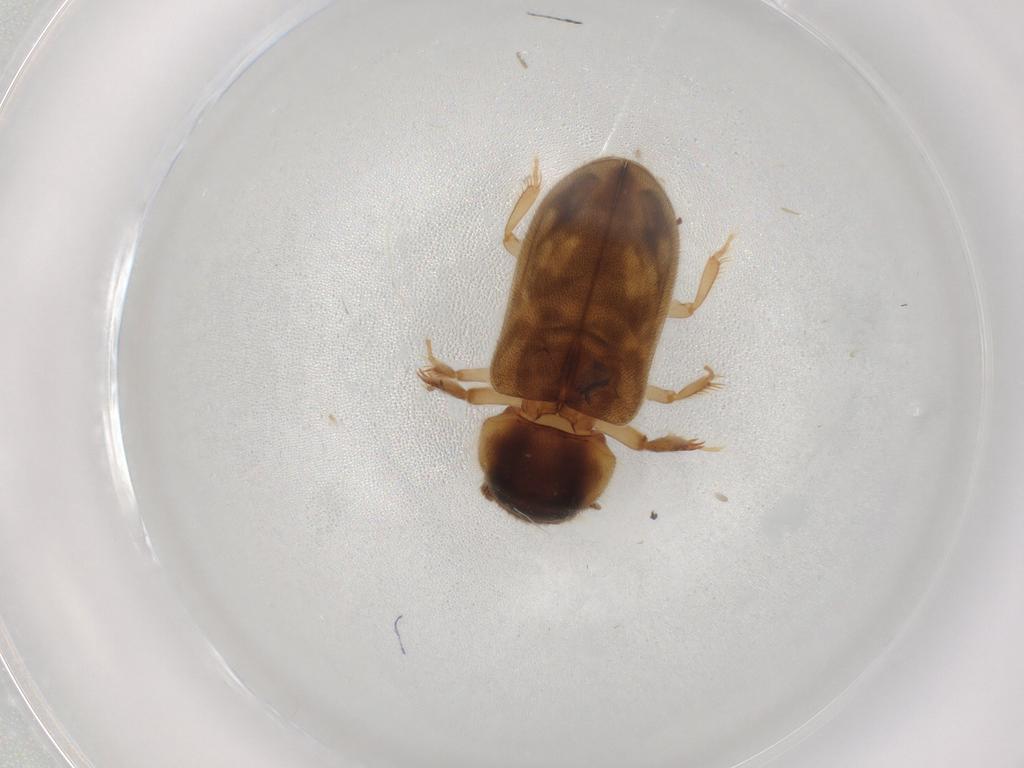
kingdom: Animalia
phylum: Arthropoda
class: Insecta
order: Coleoptera
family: Heteroceridae
